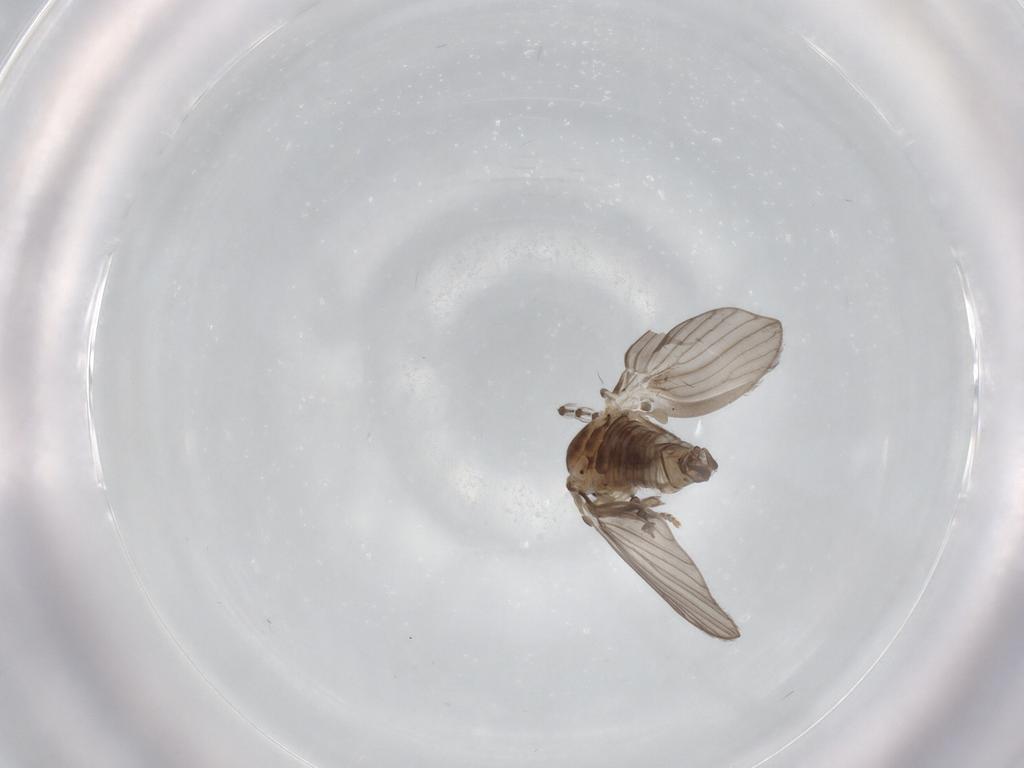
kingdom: Animalia
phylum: Arthropoda
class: Insecta
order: Diptera
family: Psychodidae
